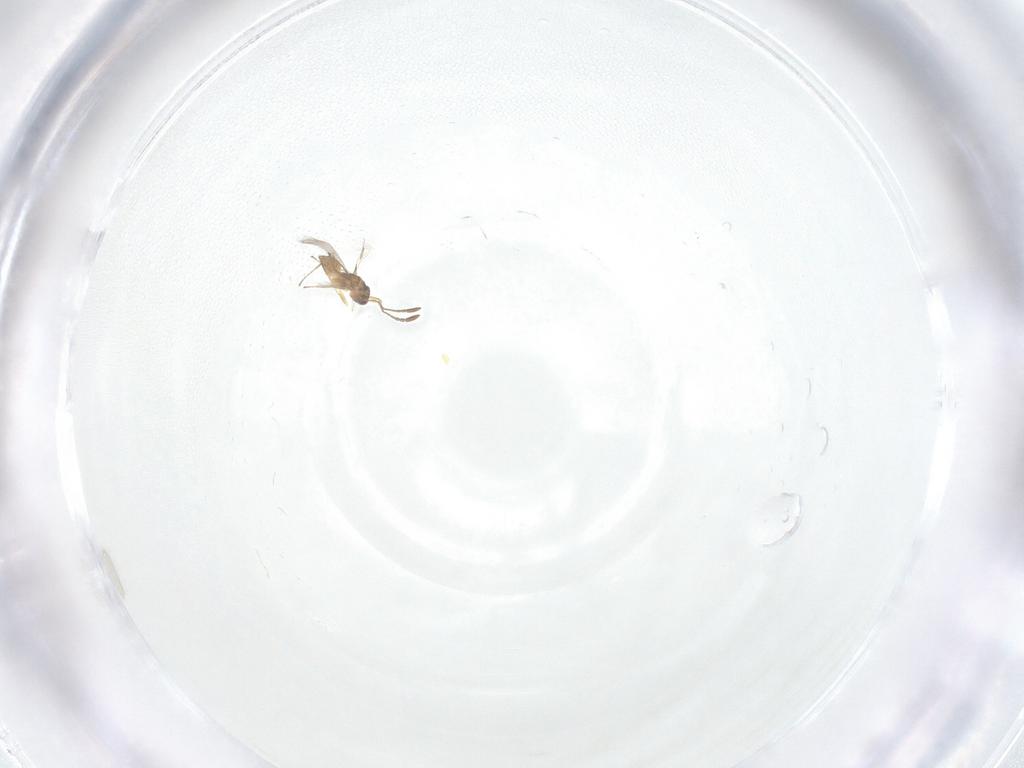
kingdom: Animalia
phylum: Arthropoda
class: Insecta
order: Hymenoptera
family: Mymaridae
